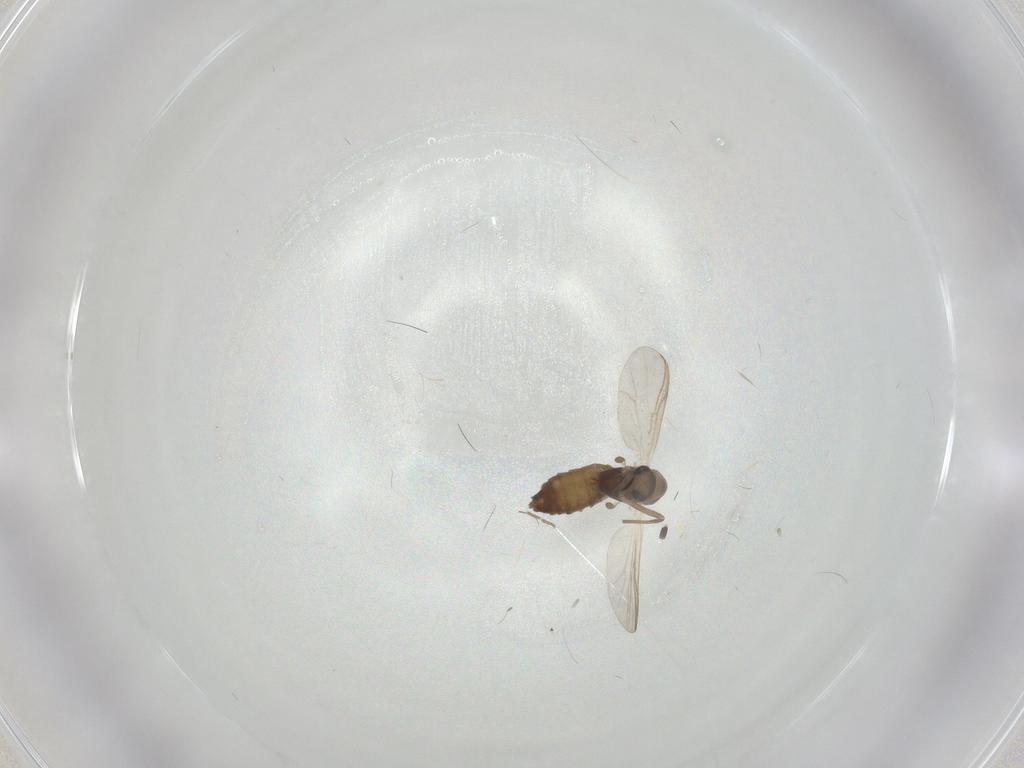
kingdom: Animalia
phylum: Arthropoda
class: Insecta
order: Diptera
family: Chironomidae
